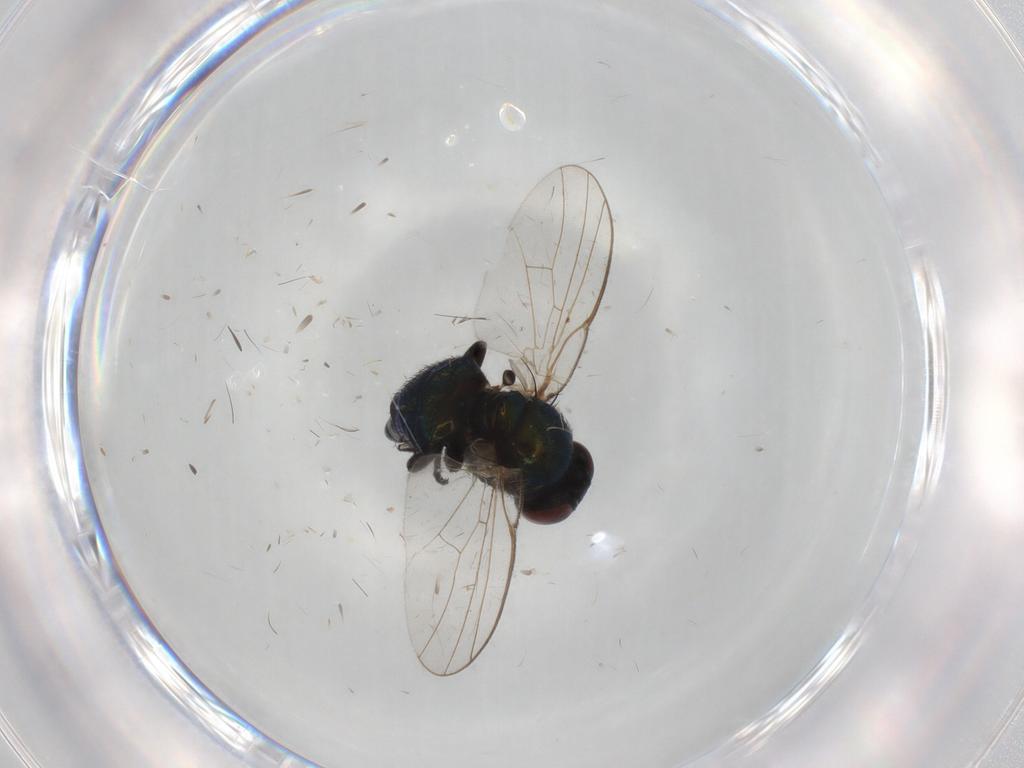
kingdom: Animalia
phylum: Arthropoda
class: Insecta
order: Diptera
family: Agromyzidae
